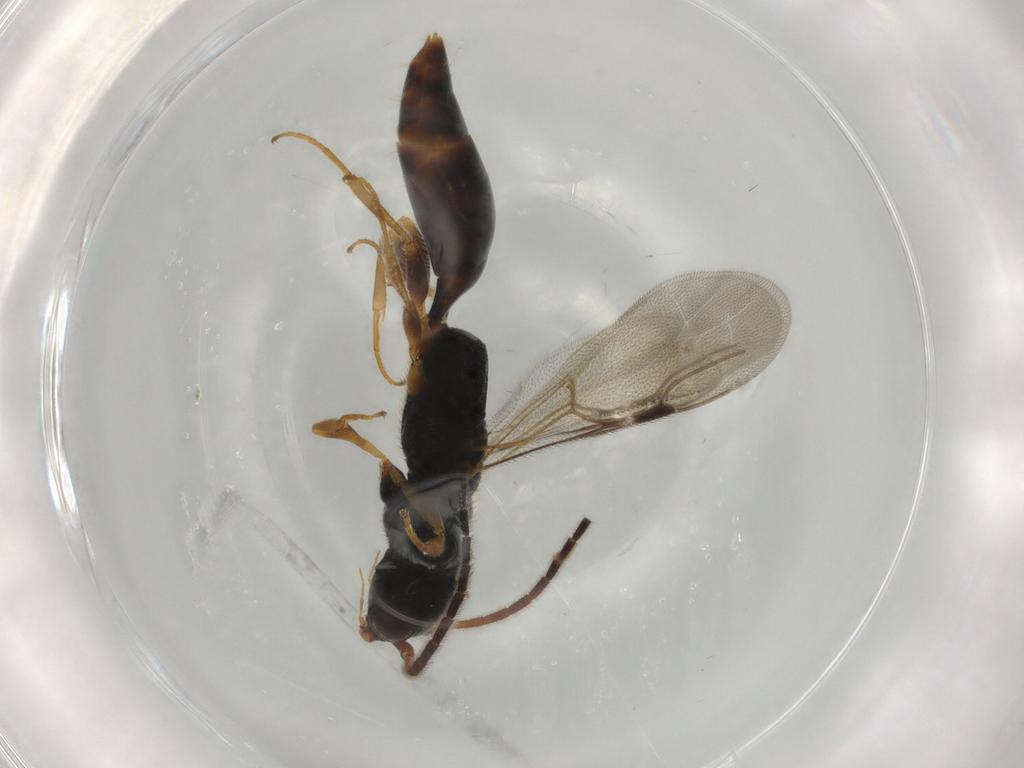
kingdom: Animalia
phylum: Arthropoda
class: Insecta
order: Hymenoptera
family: Bethylidae
